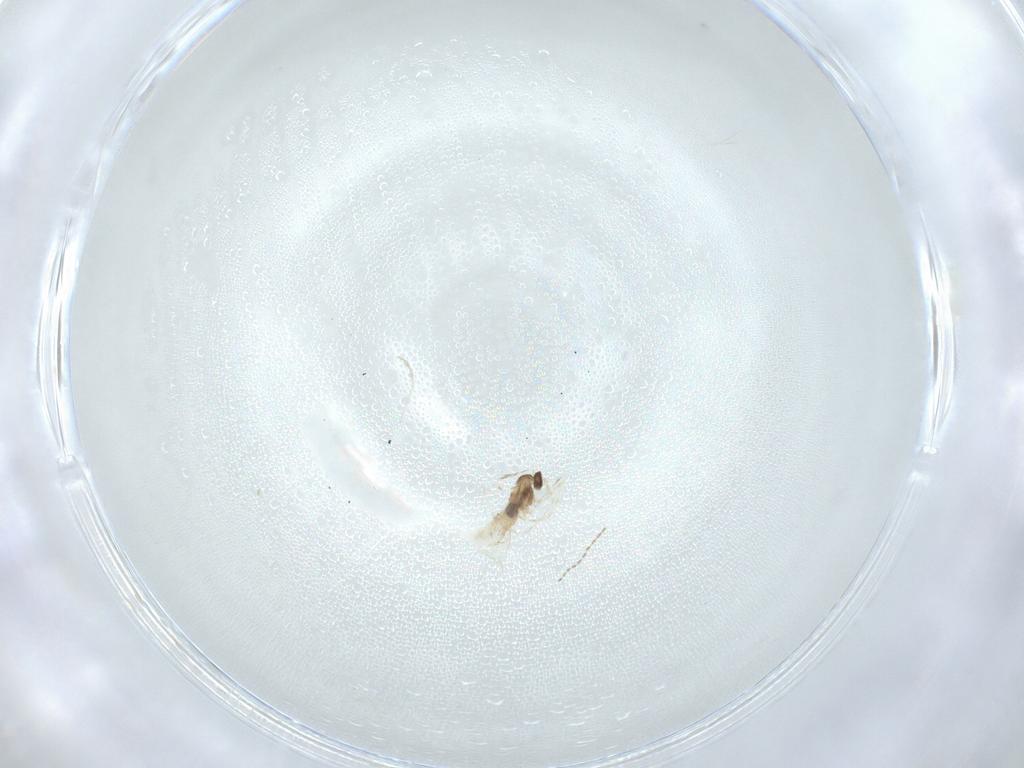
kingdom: Animalia
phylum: Arthropoda
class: Insecta
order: Diptera
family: Cecidomyiidae
